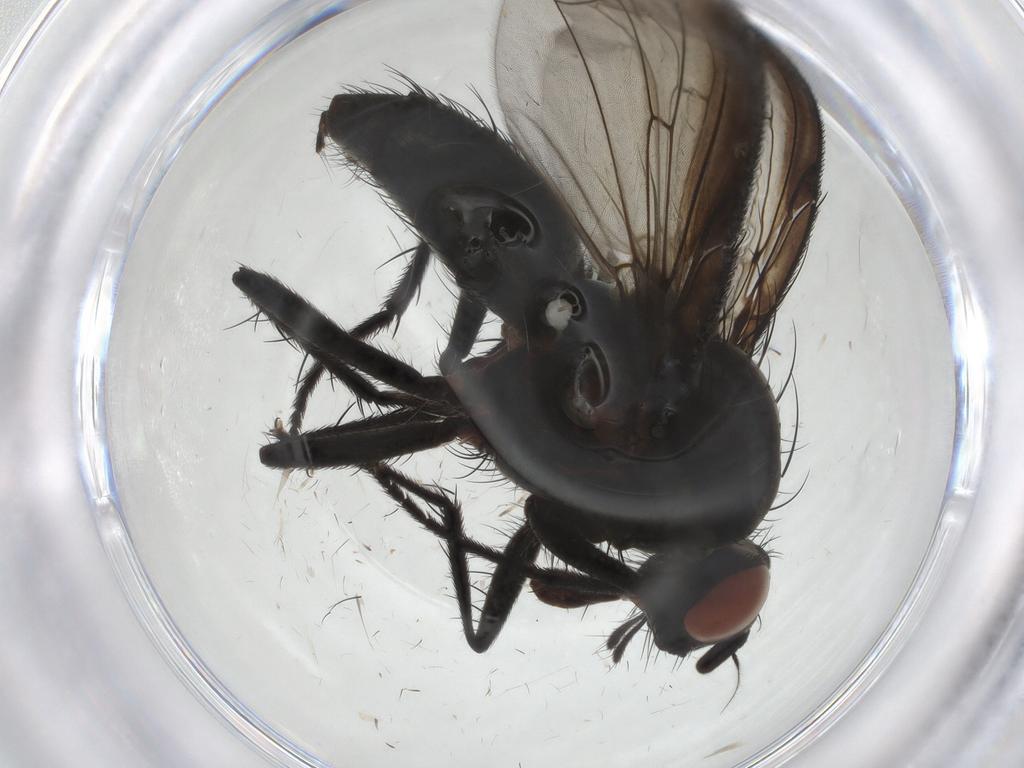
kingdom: Animalia
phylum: Arthropoda
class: Insecta
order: Diptera
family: Anthomyiidae
